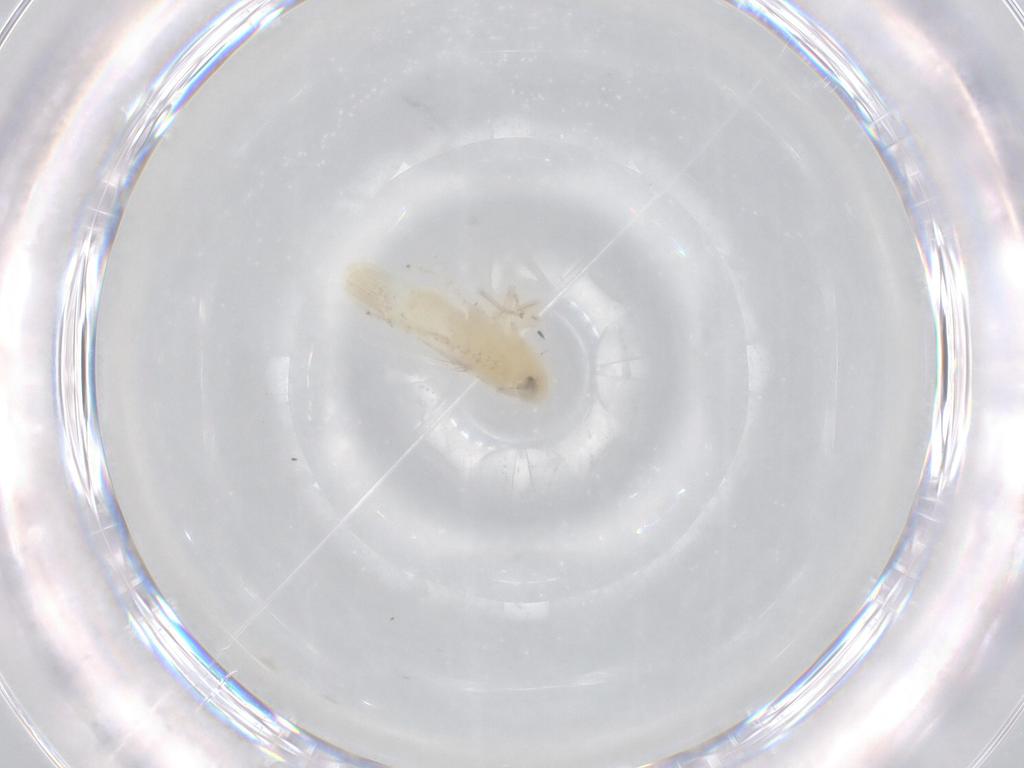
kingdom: Animalia
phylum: Arthropoda
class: Insecta
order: Hemiptera
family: Cicadellidae
